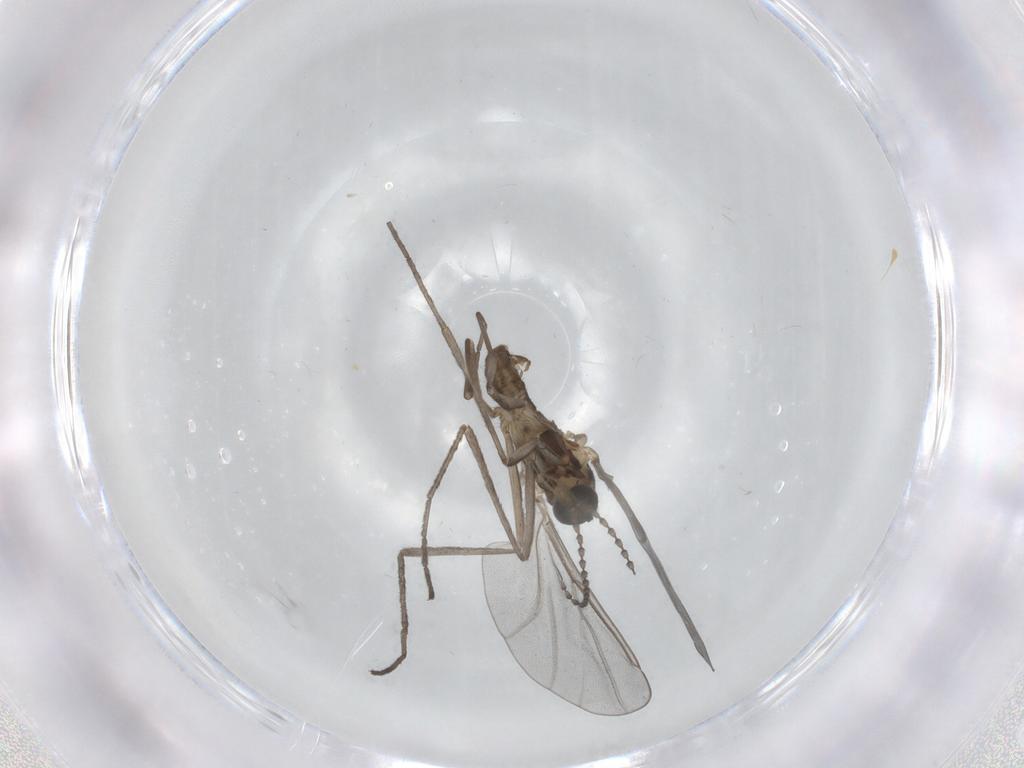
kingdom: Animalia
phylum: Arthropoda
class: Insecta
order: Diptera
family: Cecidomyiidae
